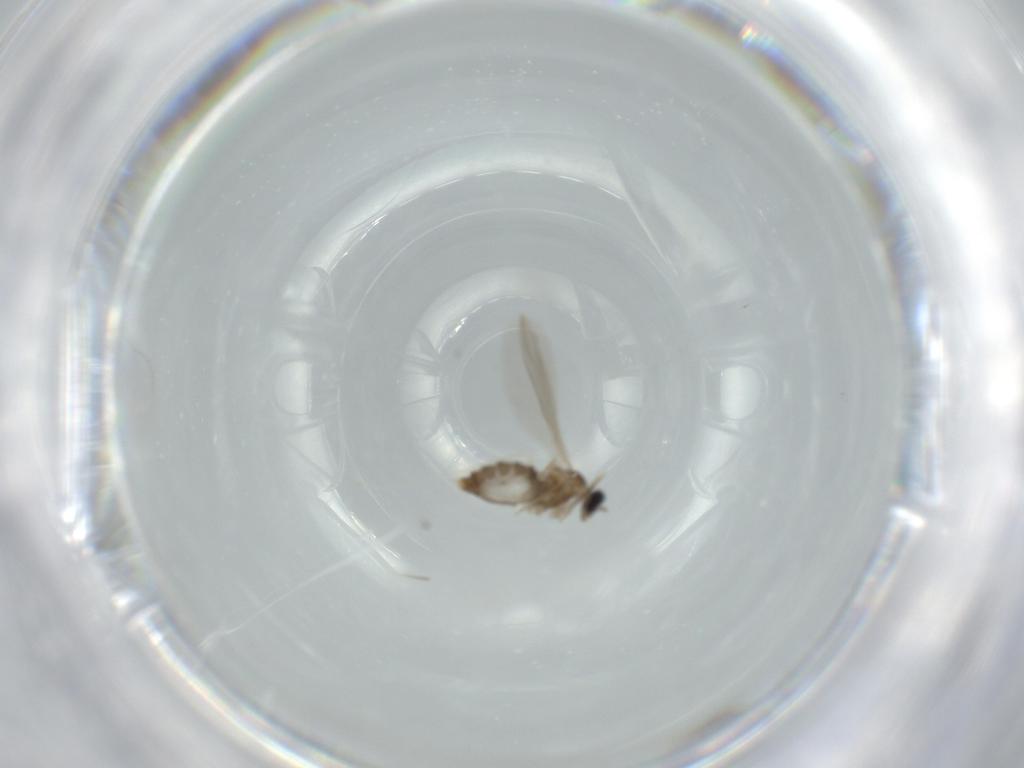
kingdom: Animalia
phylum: Arthropoda
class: Insecta
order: Diptera
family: Cecidomyiidae
